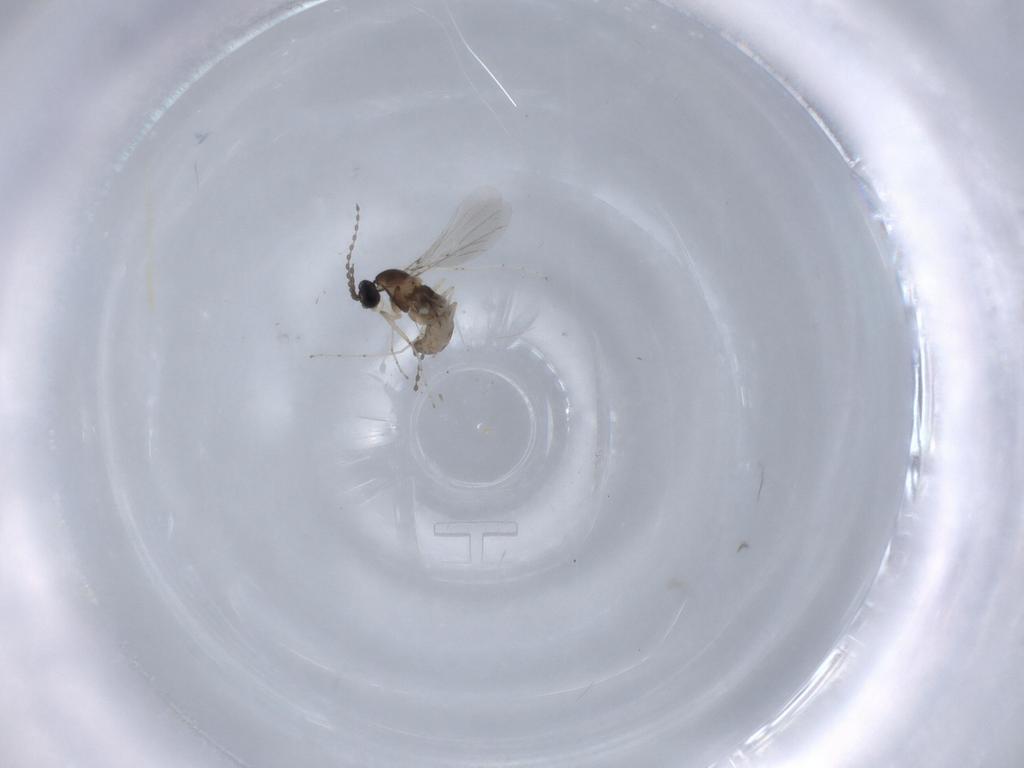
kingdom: Animalia
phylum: Arthropoda
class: Insecta
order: Diptera
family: Cecidomyiidae
